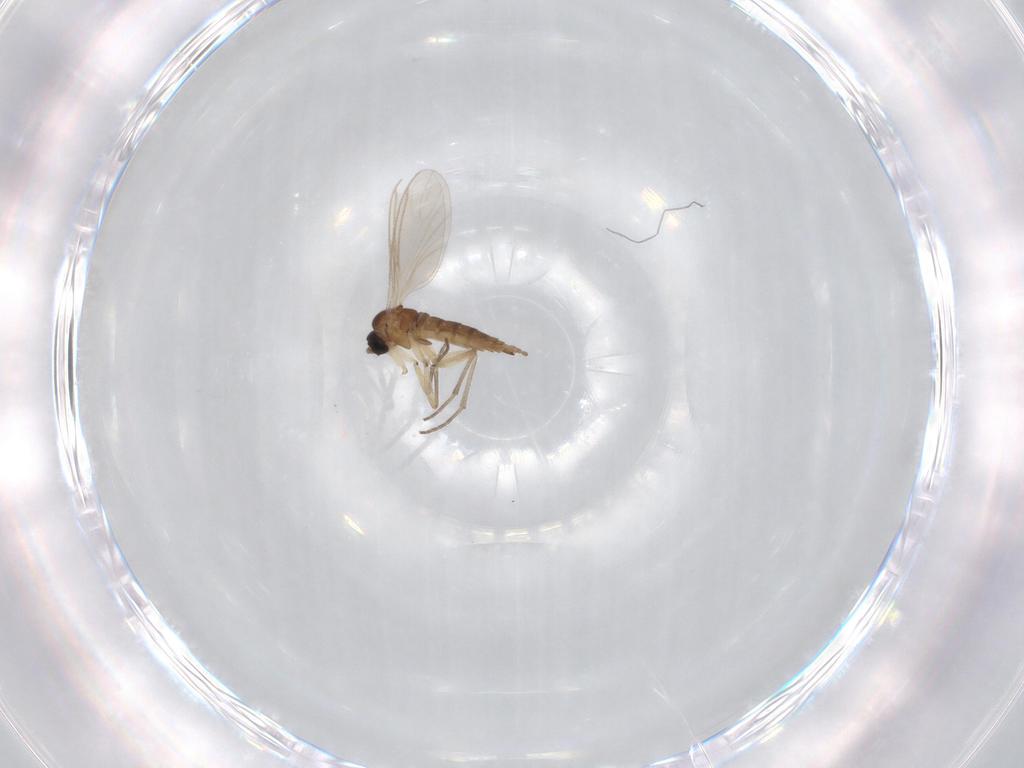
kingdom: Animalia
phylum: Arthropoda
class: Insecta
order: Diptera
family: Sciaridae
